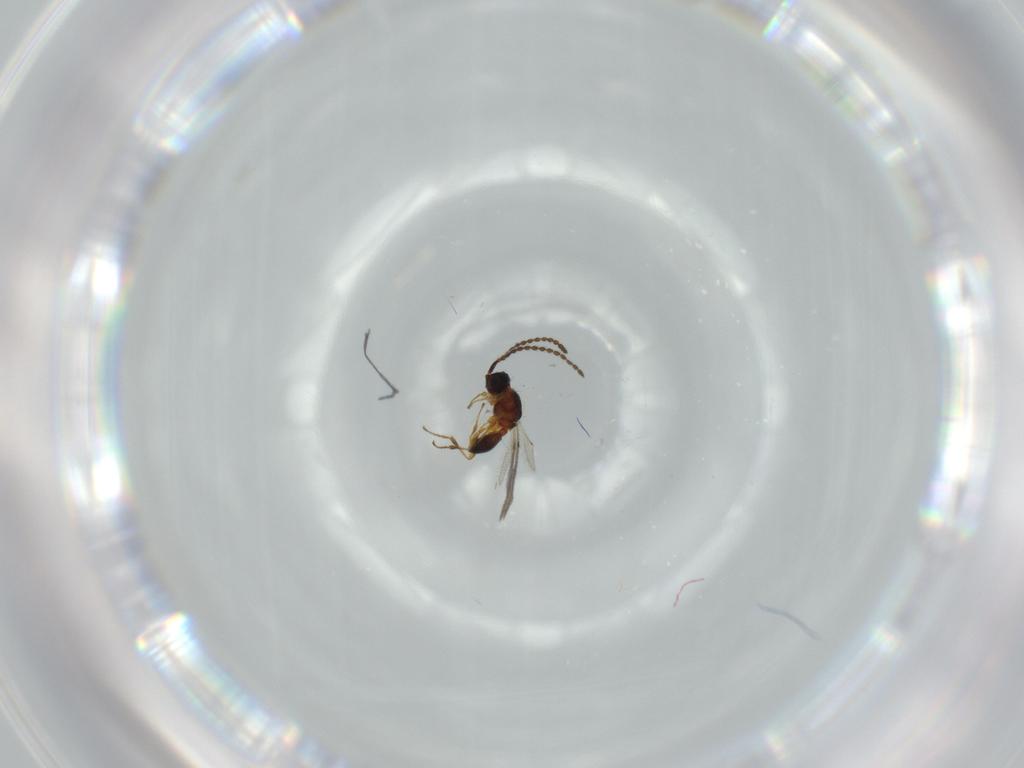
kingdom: Animalia
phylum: Arthropoda
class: Insecta
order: Hymenoptera
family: Diapriidae
